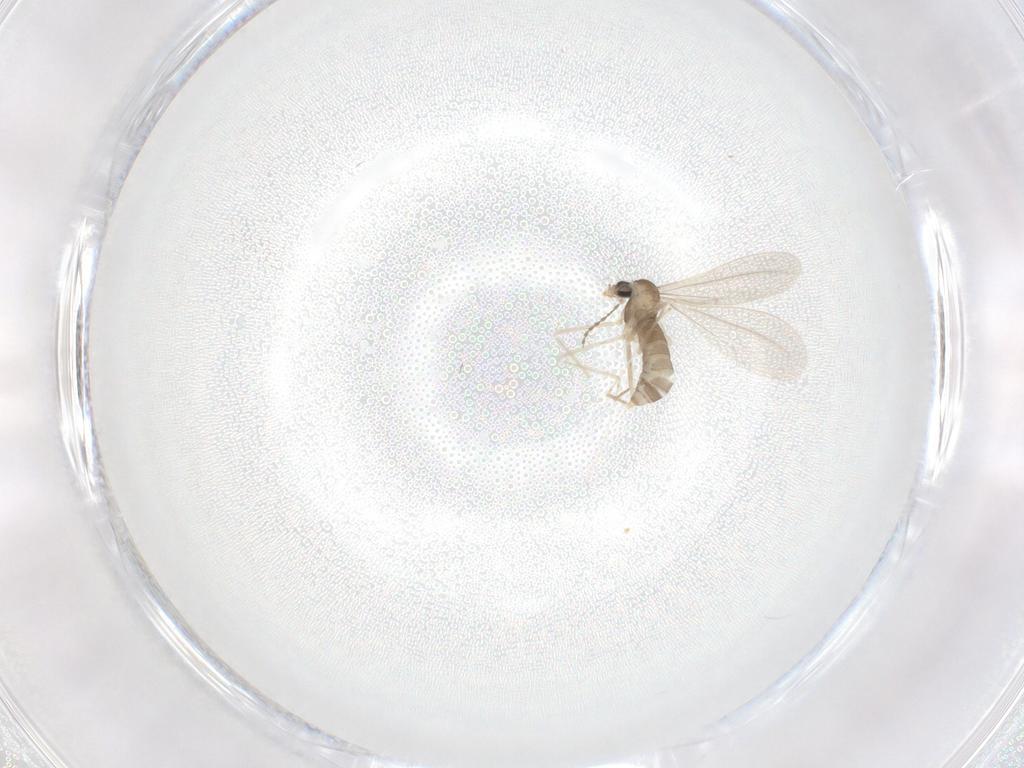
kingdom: Animalia
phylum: Arthropoda
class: Insecta
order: Diptera
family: Cecidomyiidae
